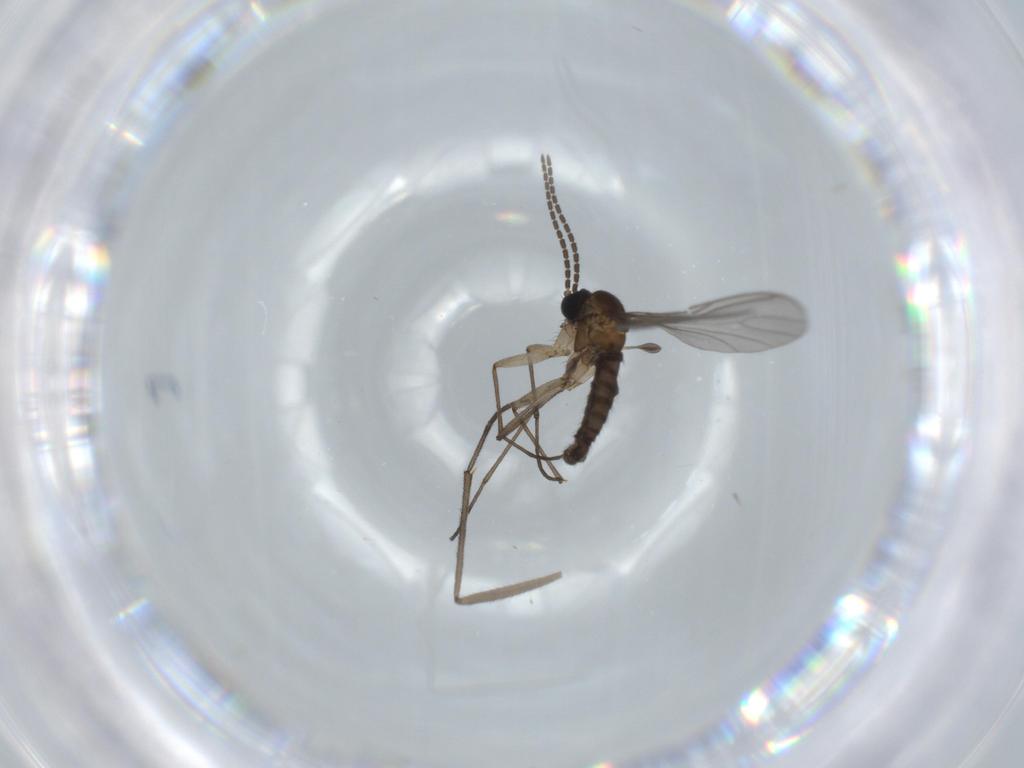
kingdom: Animalia
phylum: Arthropoda
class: Insecta
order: Diptera
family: Sciaridae
